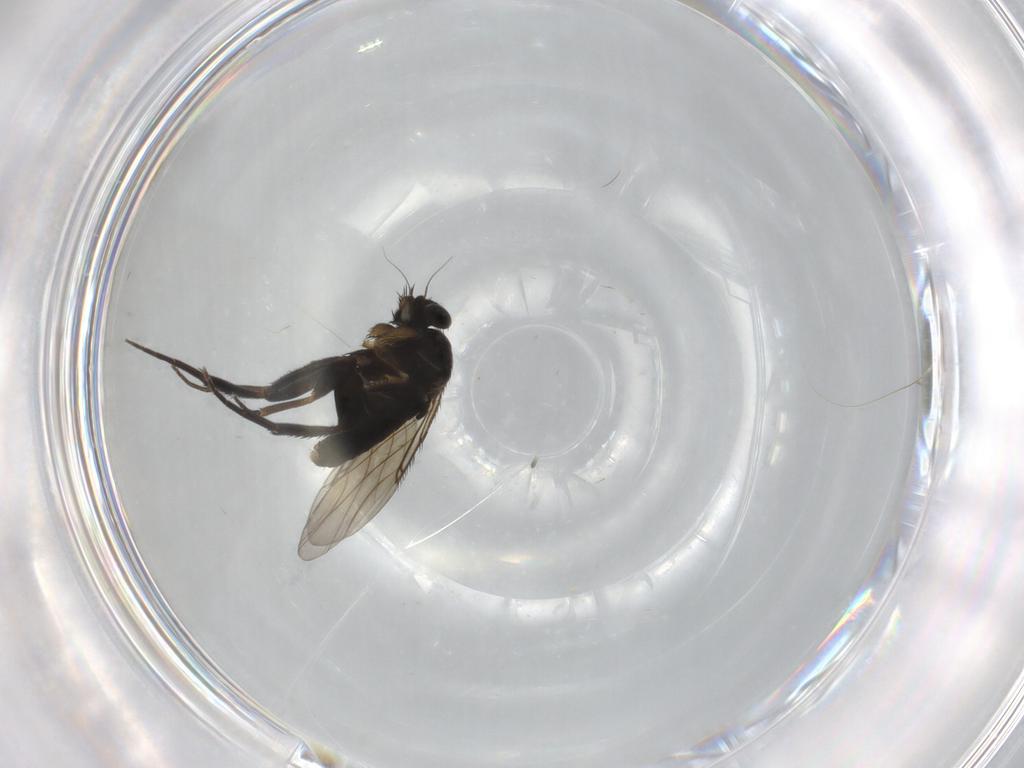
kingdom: Animalia
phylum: Arthropoda
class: Insecta
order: Diptera
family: Phoridae
